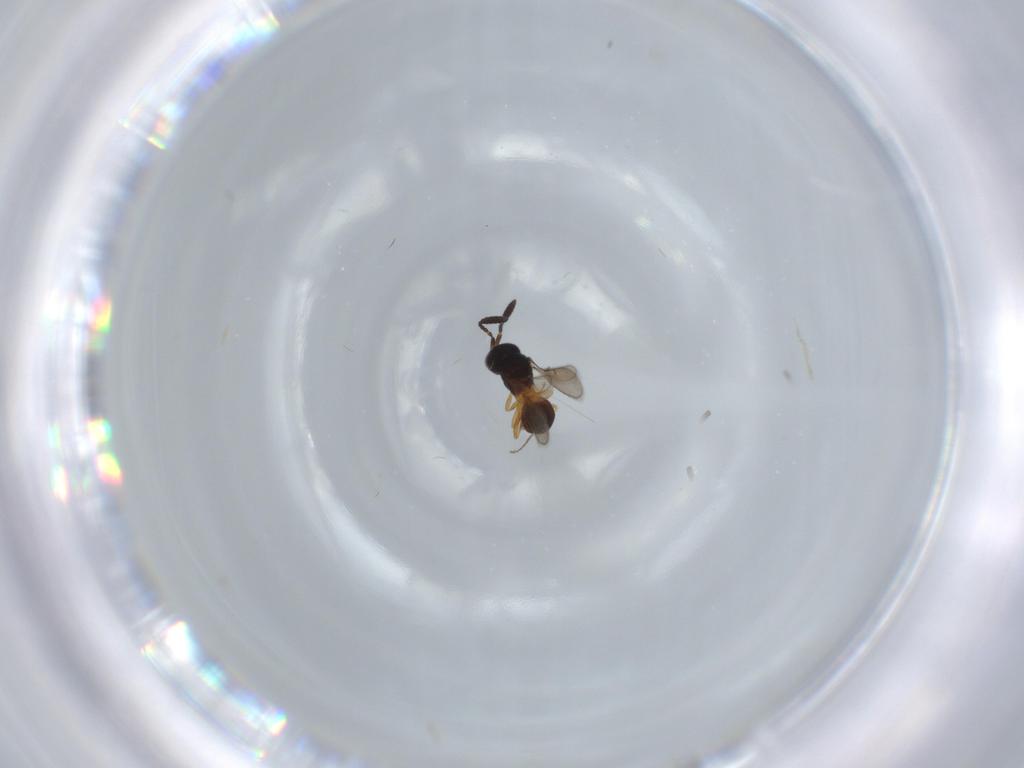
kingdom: Animalia
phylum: Arthropoda
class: Insecta
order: Hymenoptera
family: Scelionidae
